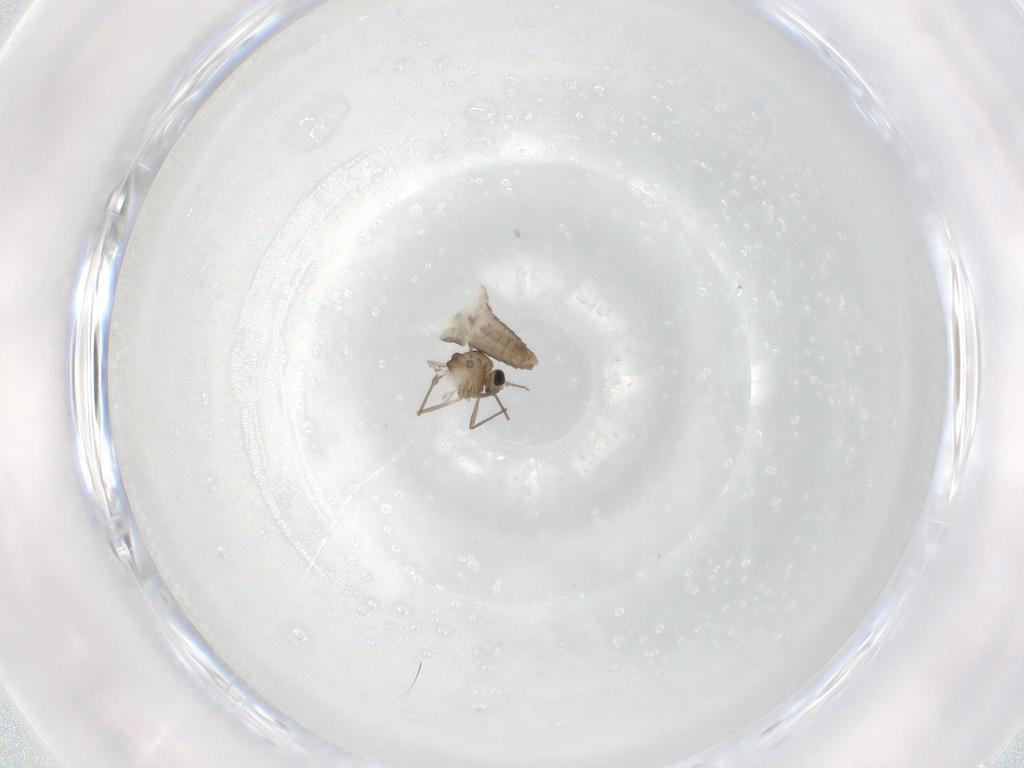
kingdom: Animalia
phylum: Arthropoda
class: Insecta
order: Diptera
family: Chironomidae
